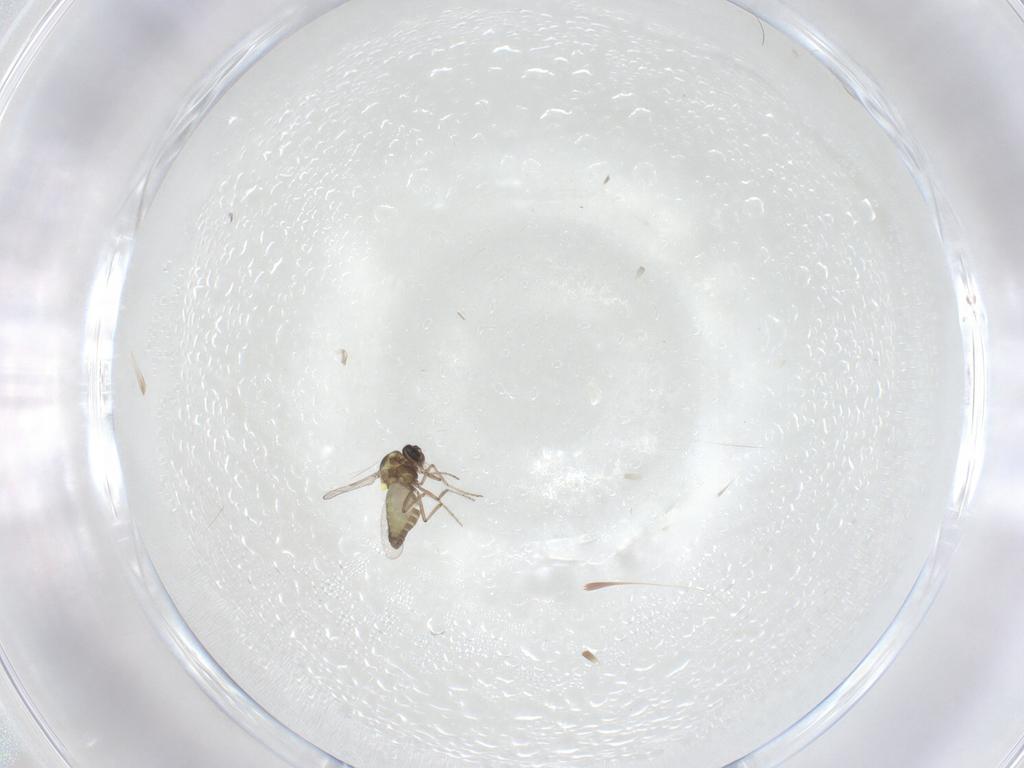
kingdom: Animalia
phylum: Arthropoda
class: Insecta
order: Diptera
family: Ceratopogonidae
